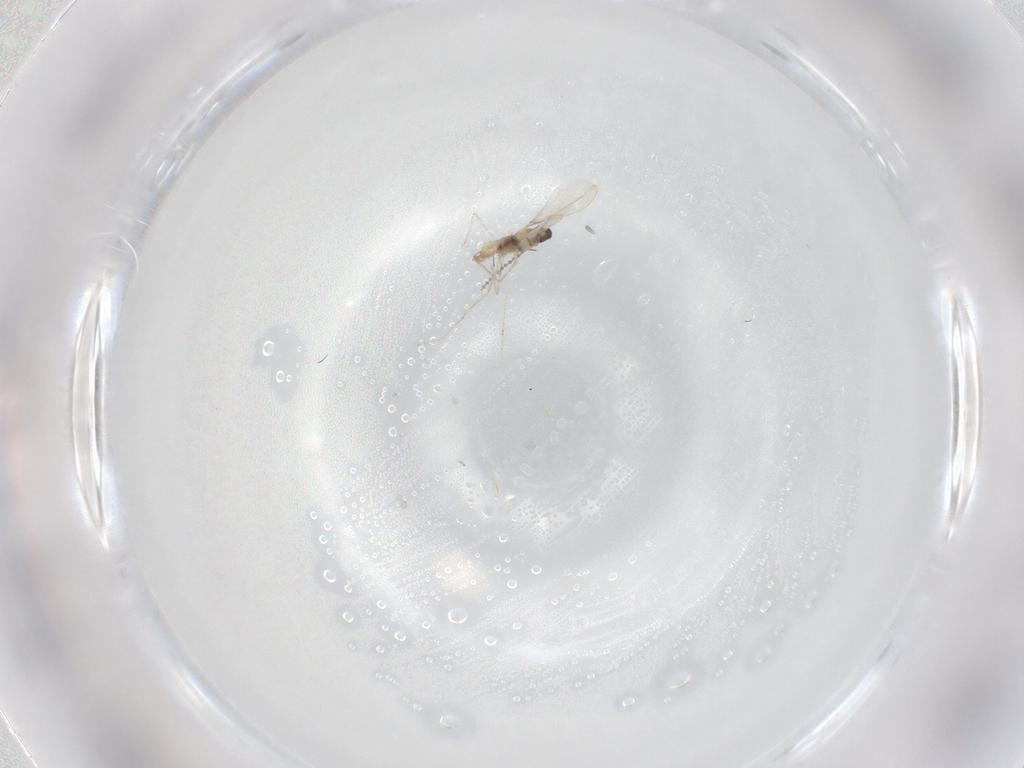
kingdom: Animalia
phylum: Arthropoda
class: Insecta
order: Diptera
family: Cecidomyiidae
